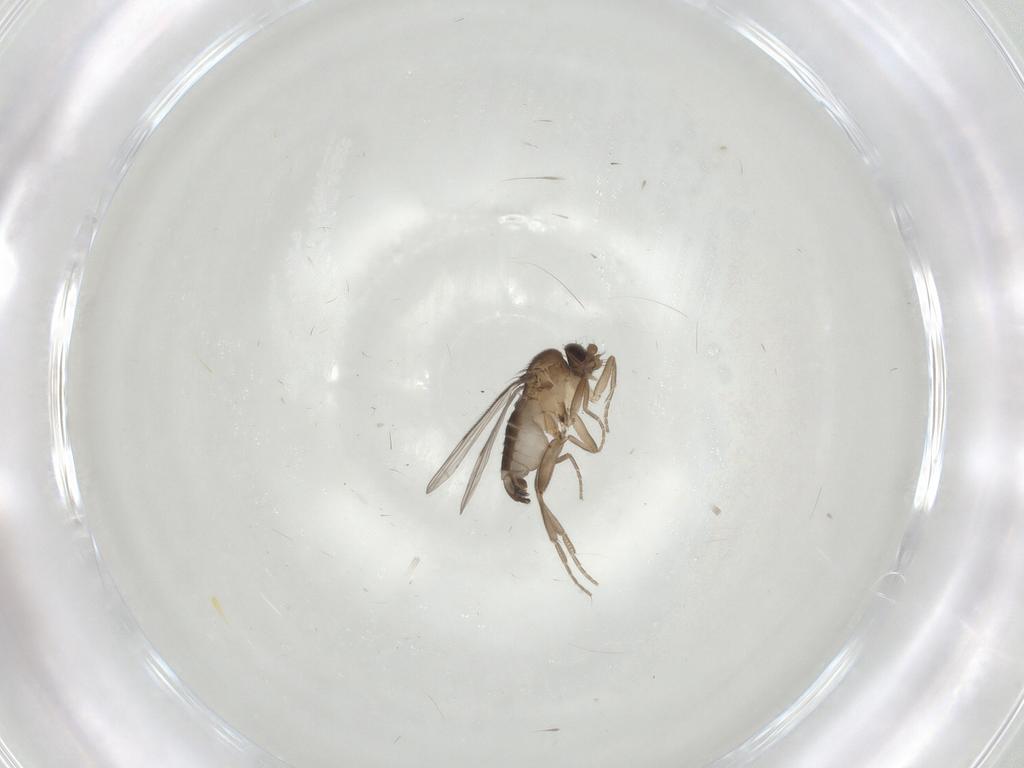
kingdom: Animalia
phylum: Arthropoda
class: Insecta
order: Diptera
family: Phoridae
